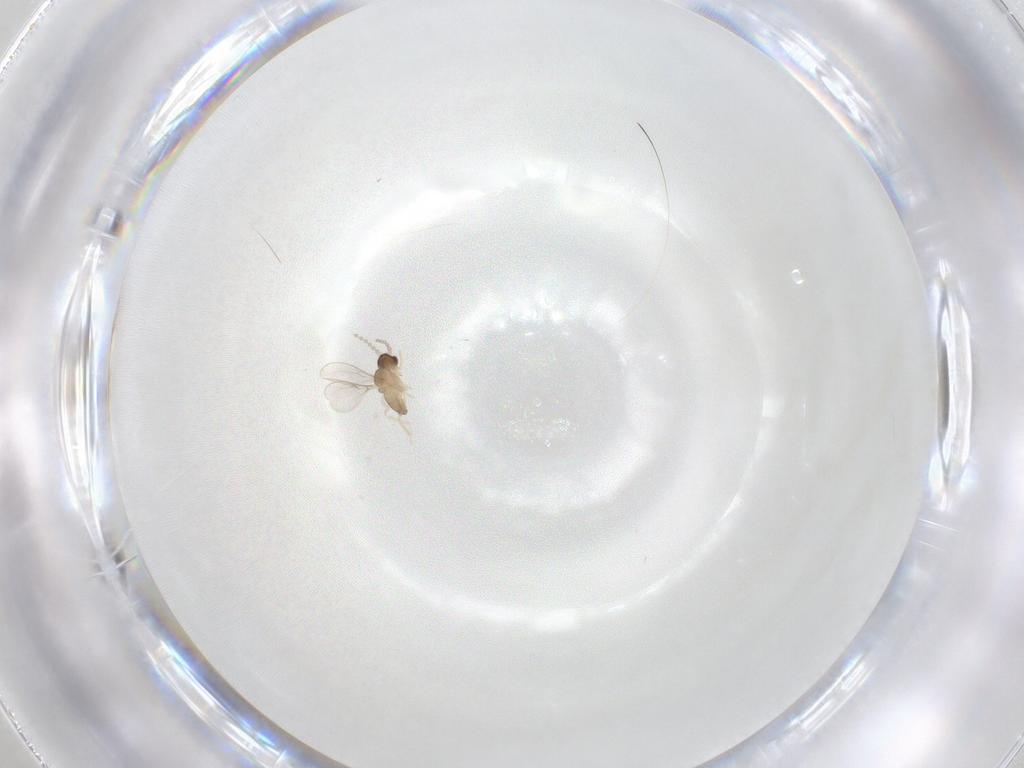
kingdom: Animalia
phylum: Arthropoda
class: Insecta
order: Diptera
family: Cecidomyiidae
